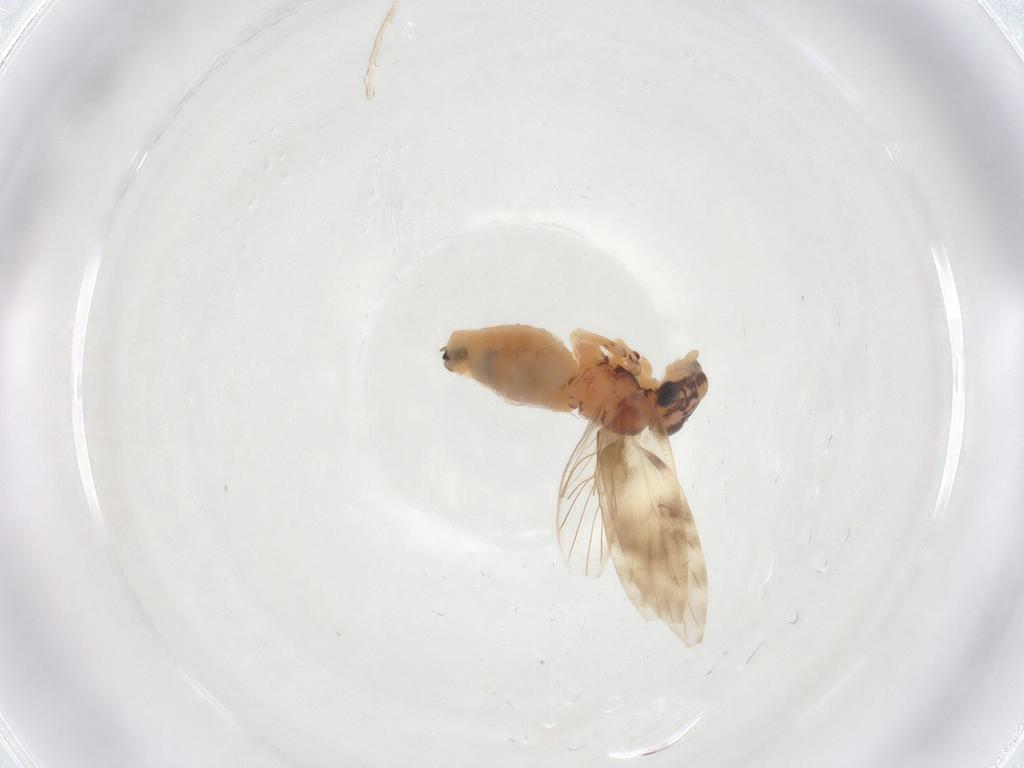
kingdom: Animalia
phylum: Arthropoda
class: Insecta
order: Psocodea
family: Lepidopsocidae
